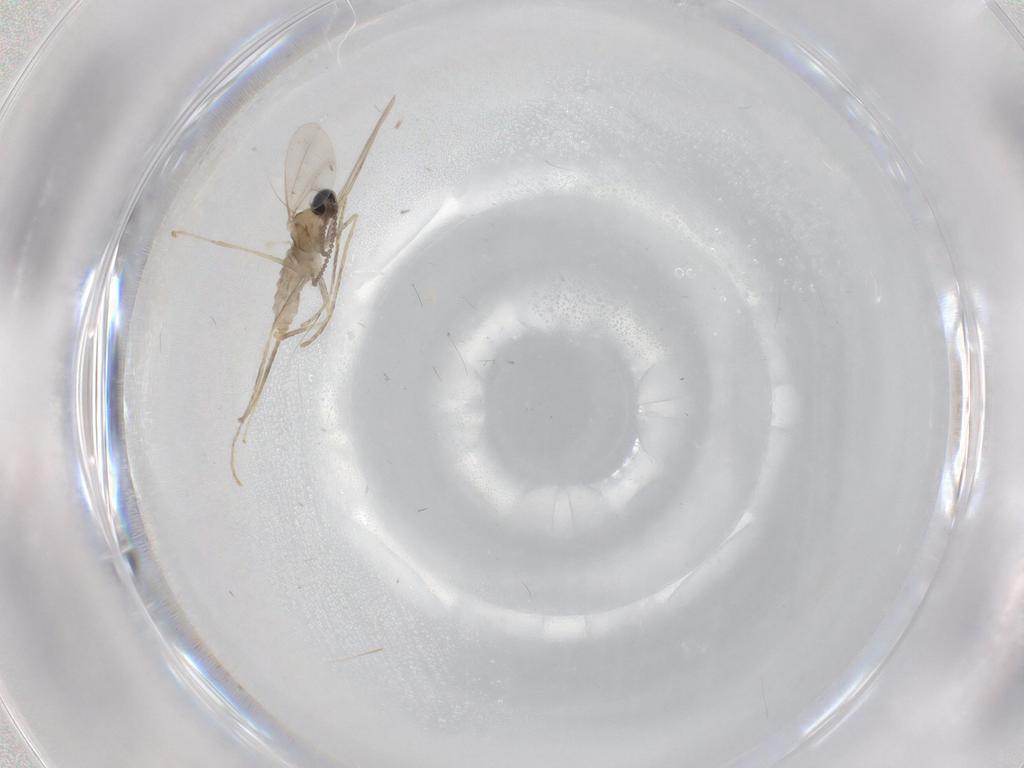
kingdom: Animalia
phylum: Arthropoda
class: Insecta
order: Diptera
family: Cecidomyiidae
